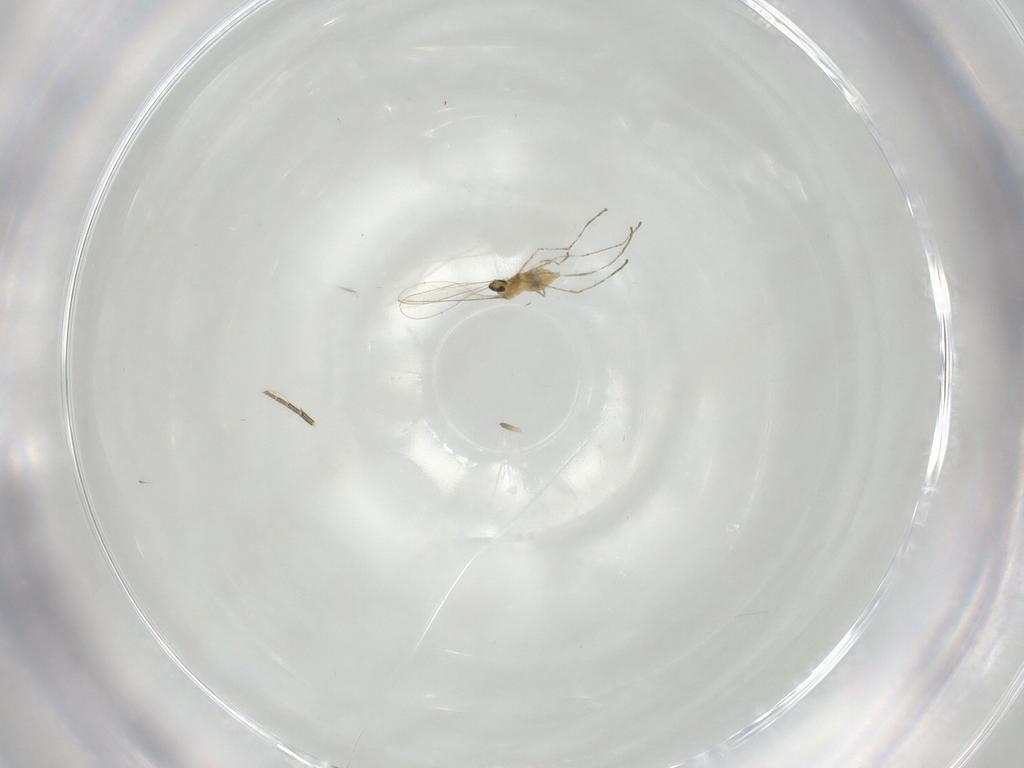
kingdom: Animalia
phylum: Arthropoda
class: Insecta
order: Diptera
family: Cecidomyiidae
